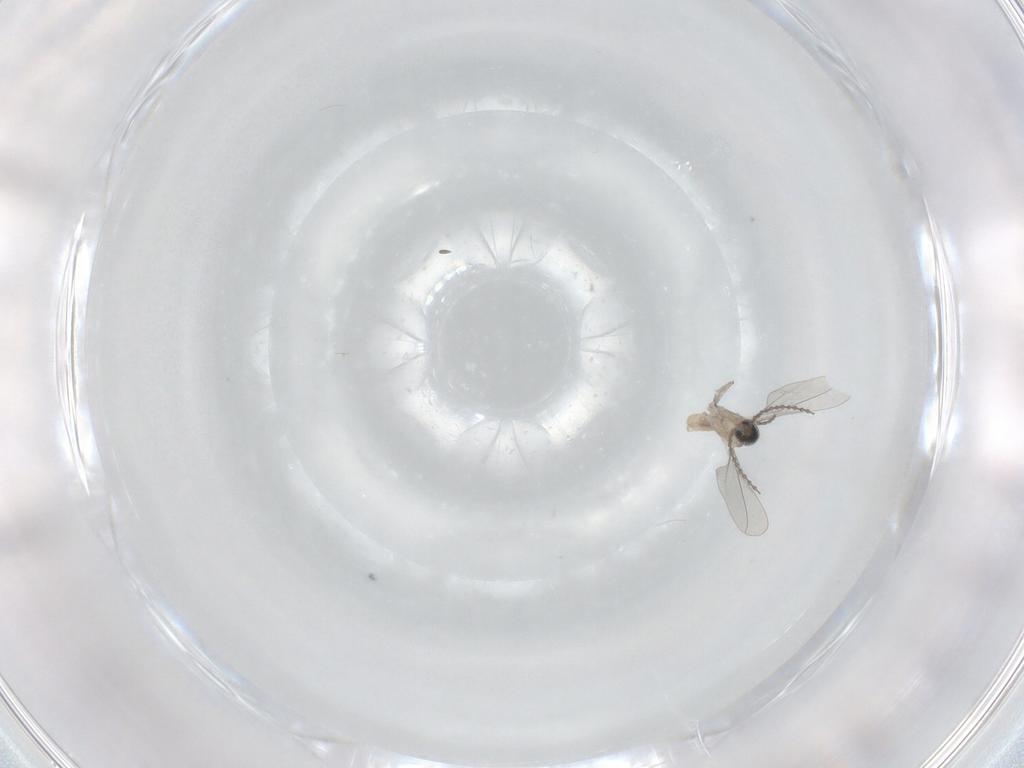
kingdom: Animalia
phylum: Arthropoda
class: Insecta
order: Diptera
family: Cecidomyiidae
